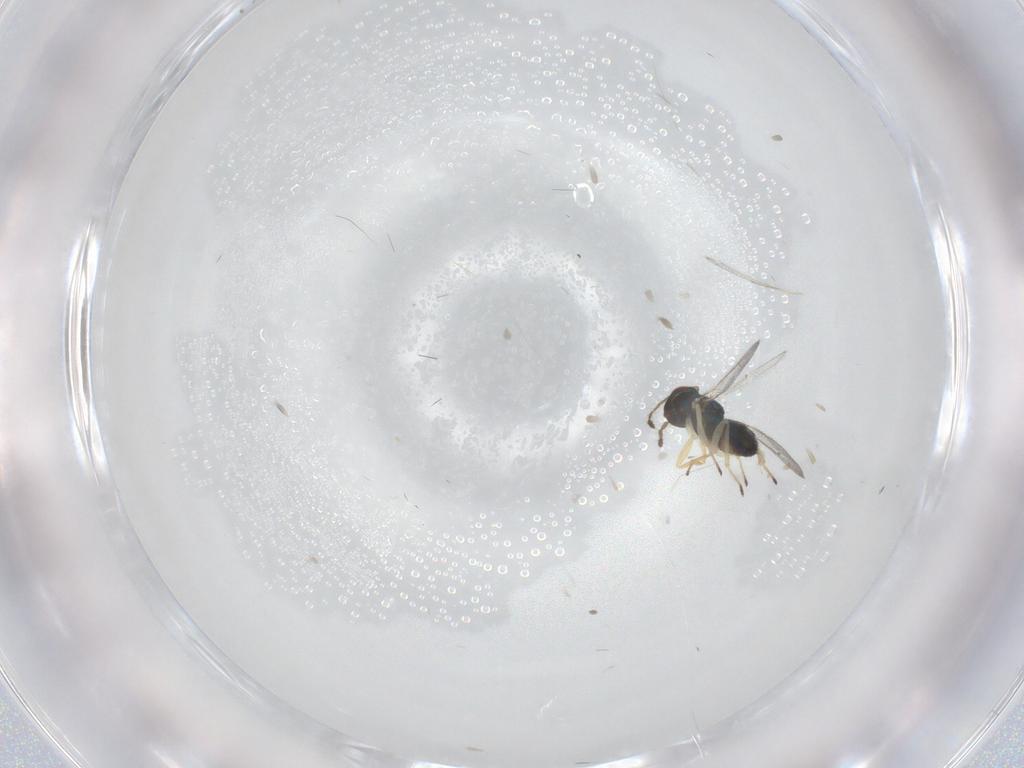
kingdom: Animalia
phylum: Arthropoda
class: Insecta
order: Hymenoptera
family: Eulophidae
